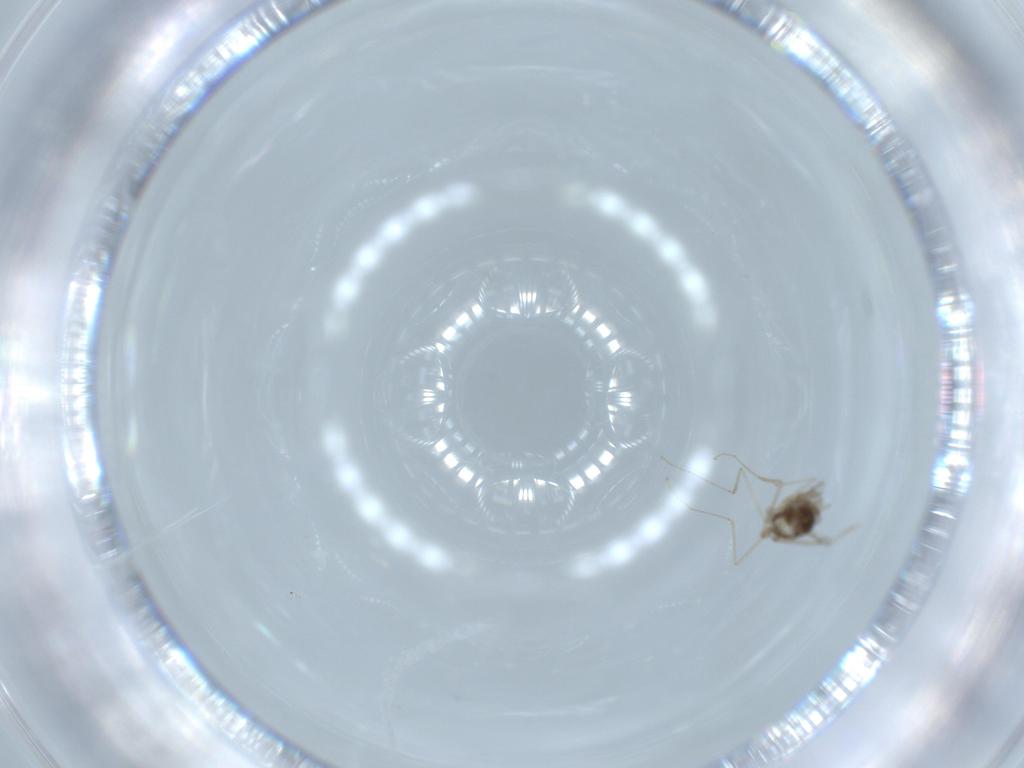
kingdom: Animalia
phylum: Arthropoda
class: Insecta
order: Diptera
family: Cecidomyiidae
